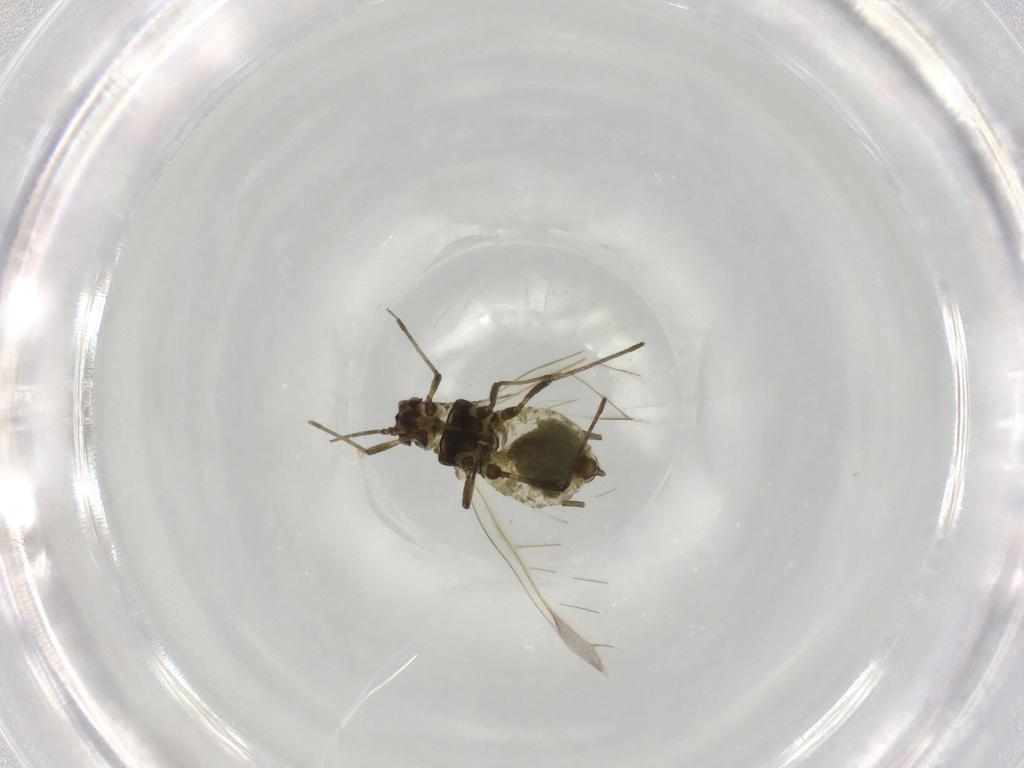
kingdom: Animalia
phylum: Arthropoda
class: Insecta
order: Hemiptera
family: Aphididae
